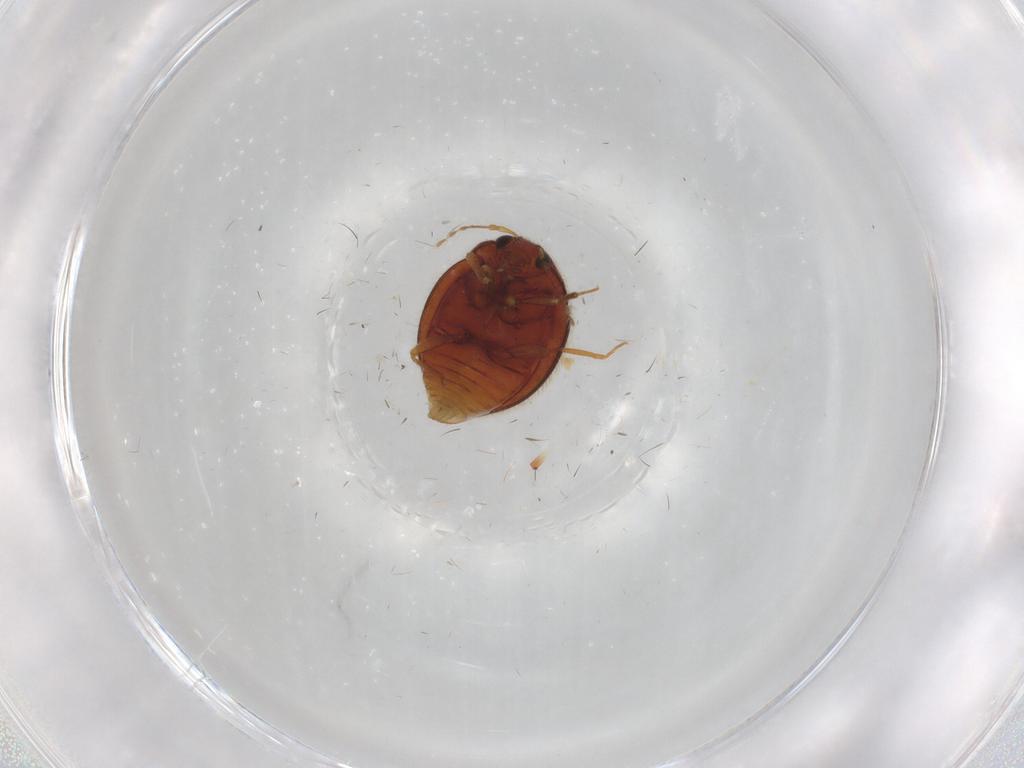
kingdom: Animalia
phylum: Arthropoda
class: Insecta
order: Coleoptera
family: Anamorphidae
